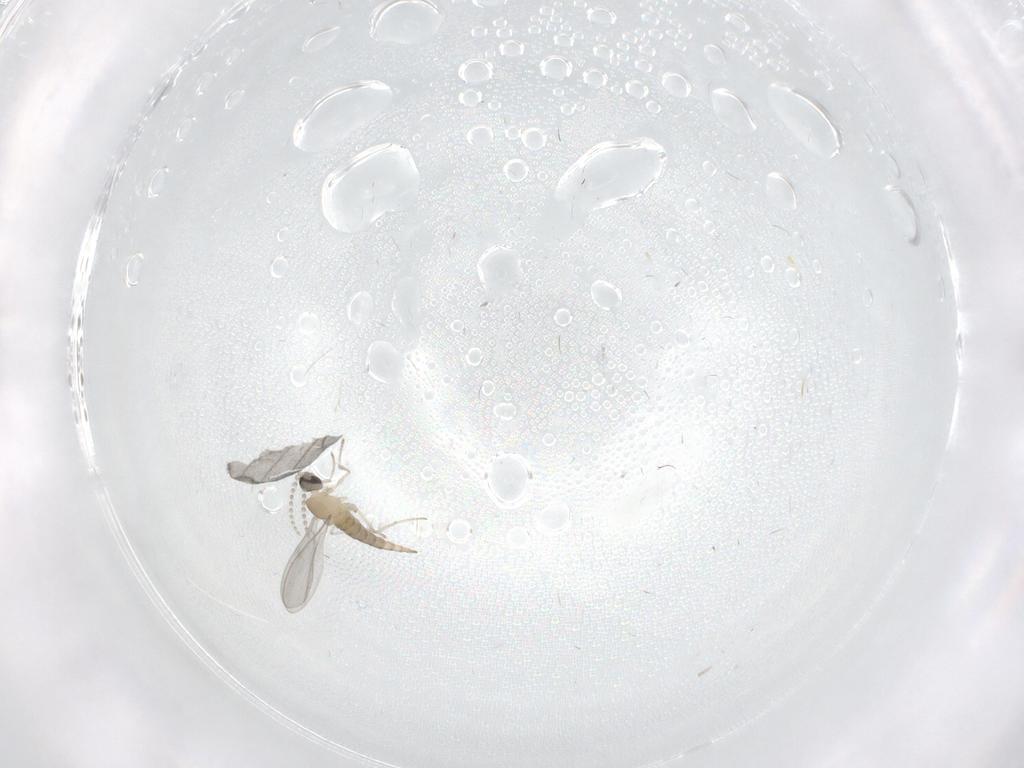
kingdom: Animalia
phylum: Arthropoda
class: Insecta
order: Diptera
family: Cecidomyiidae
